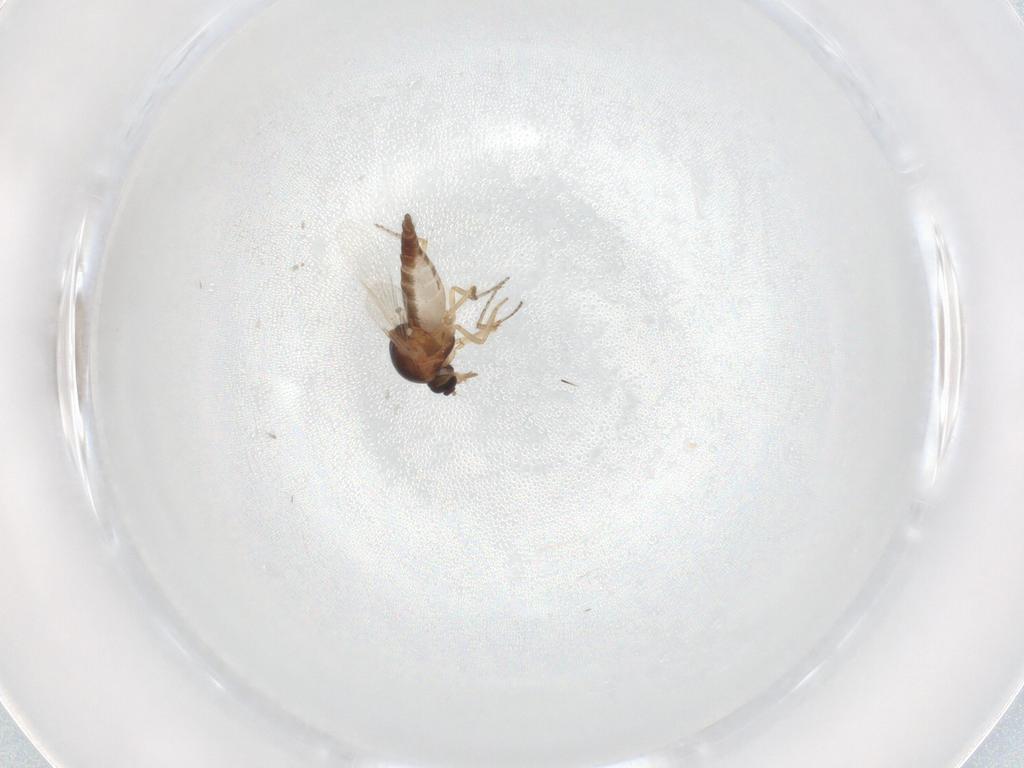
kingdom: Animalia
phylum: Arthropoda
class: Insecta
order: Diptera
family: Ceratopogonidae
